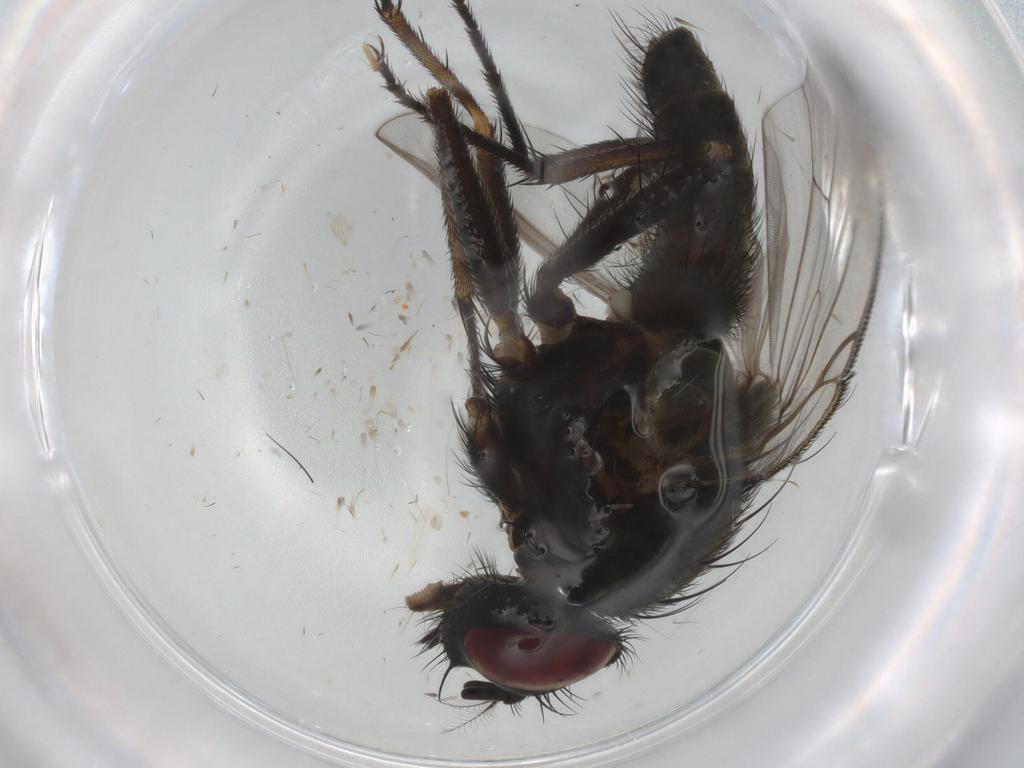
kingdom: Animalia
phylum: Arthropoda
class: Insecta
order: Diptera
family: Muscidae
